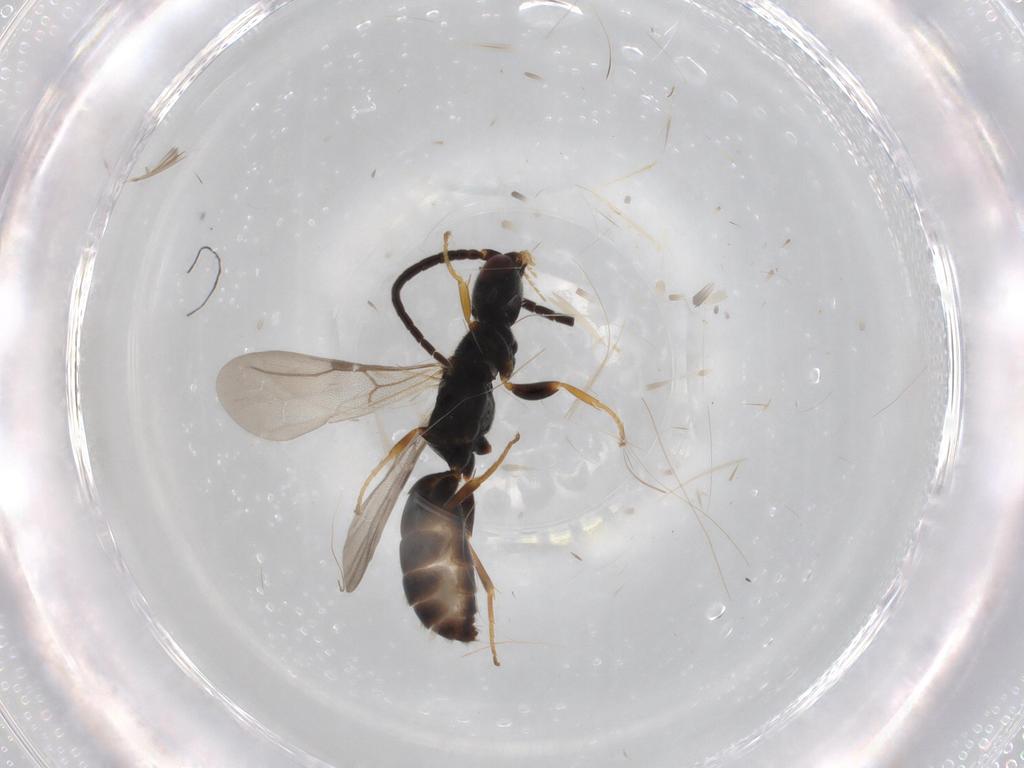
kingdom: Animalia
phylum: Arthropoda
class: Insecta
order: Hymenoptera
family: Bethylidae
